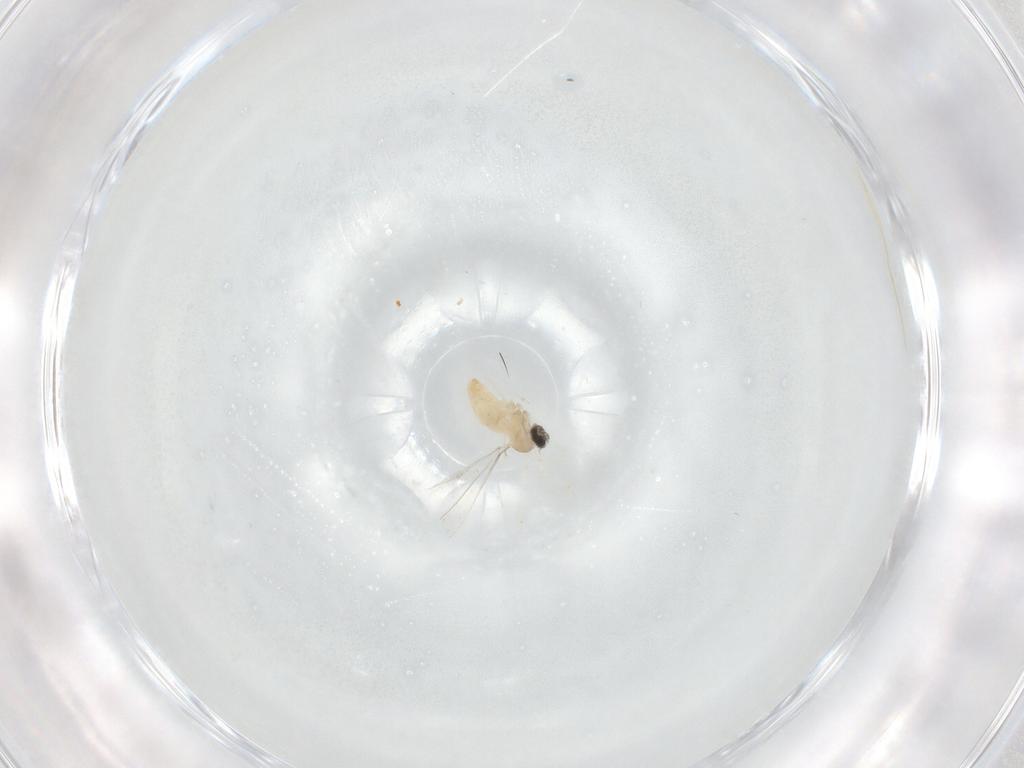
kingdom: Animalia
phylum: Arthropoda
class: Insecta
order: Diptera
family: Cecidomyiidae
